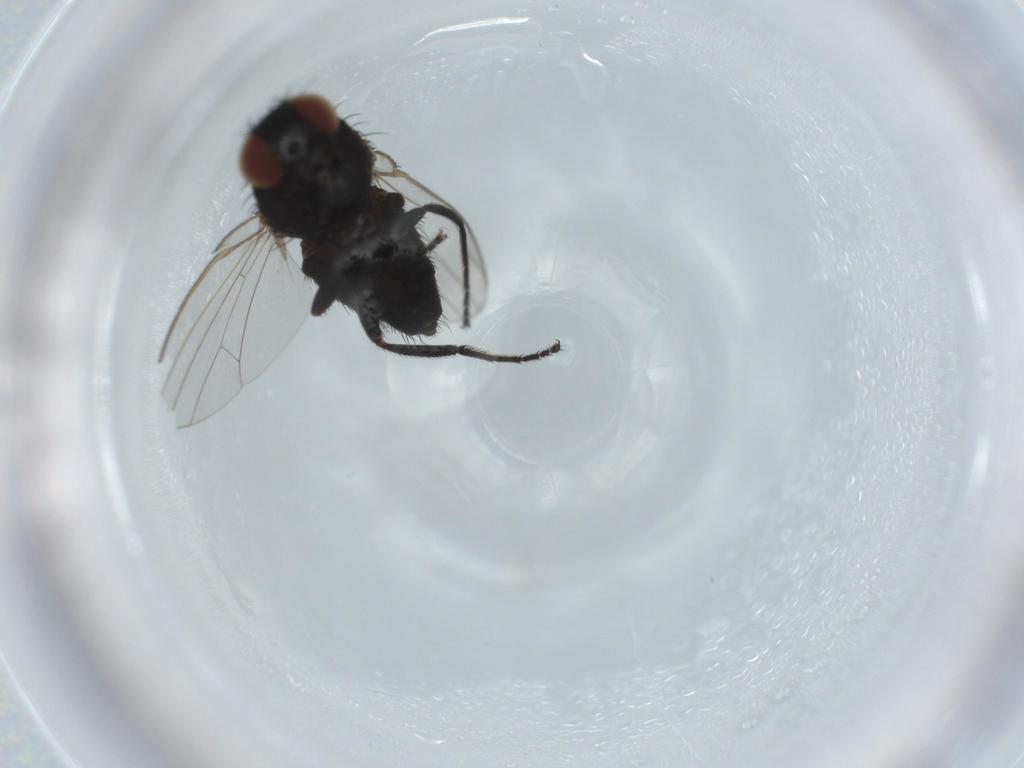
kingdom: Animalia
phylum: Arthropoda
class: Insecta
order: Diptera
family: Milichiidae
